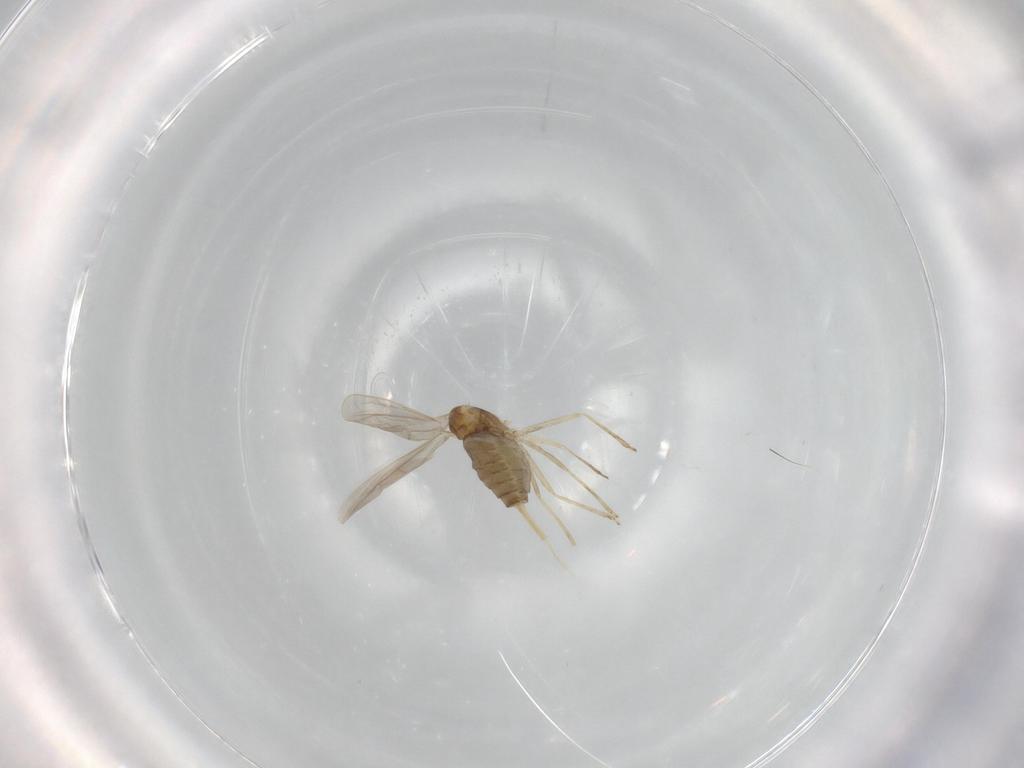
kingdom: Animalia
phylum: Arthropoda
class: Insecta
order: Diptera
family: Cecidomyiidae
